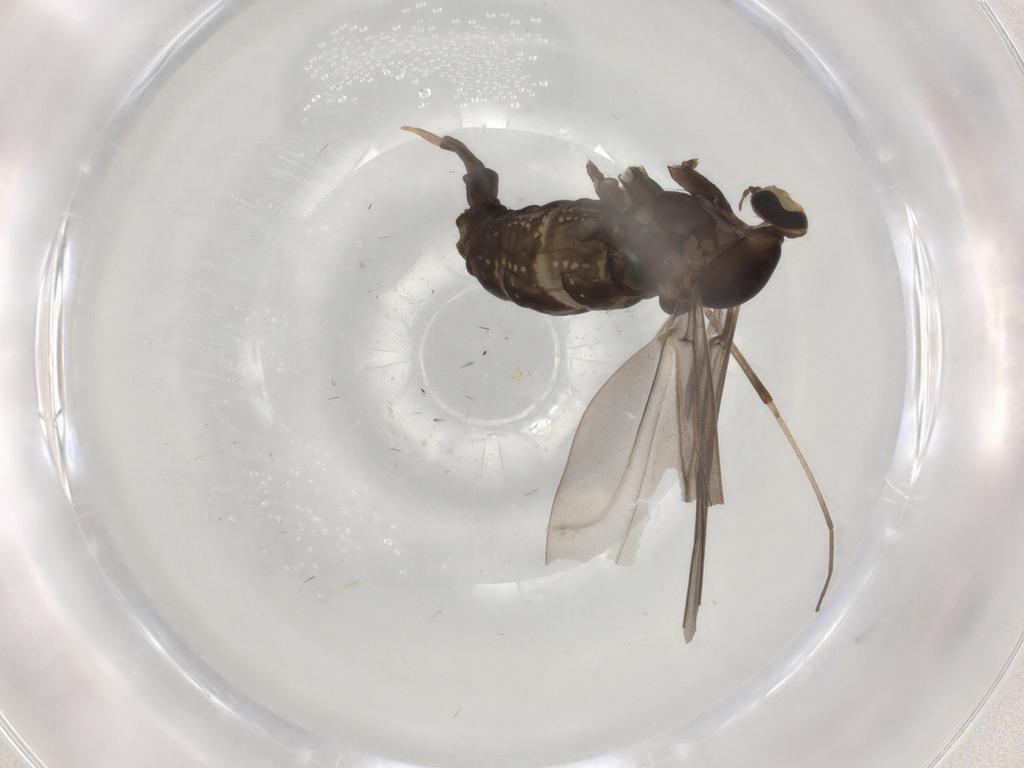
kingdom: Animalia
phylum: Arthropoda
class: Insecta
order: Diptera
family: Cecidomyiidae
